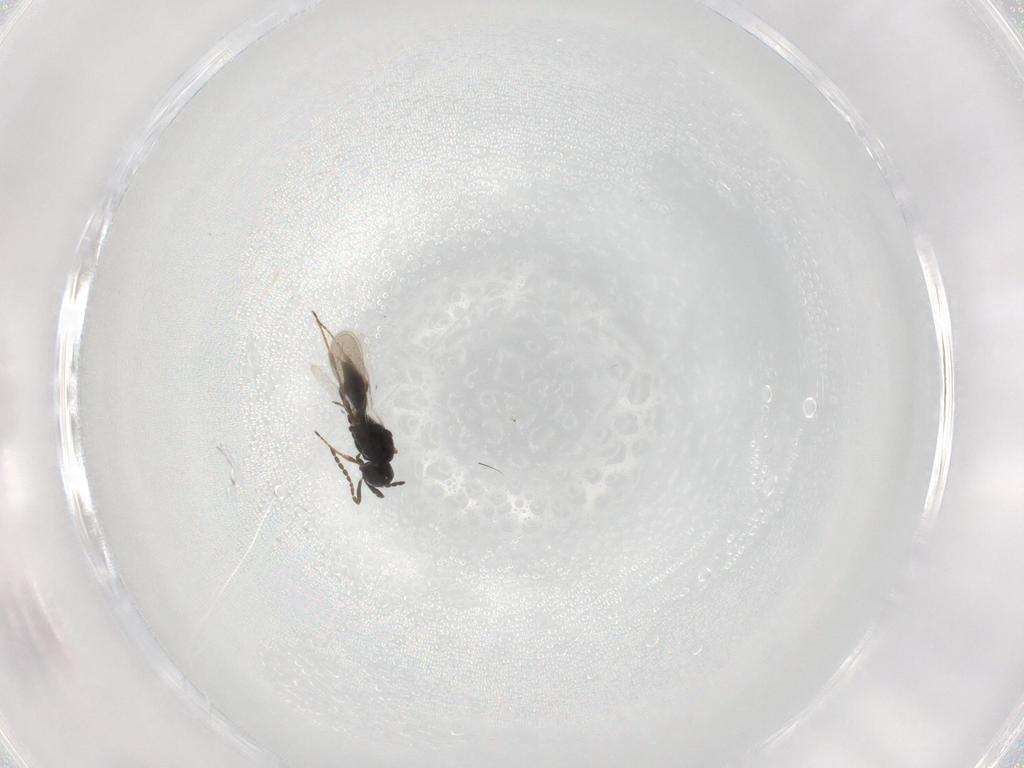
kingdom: Animalia
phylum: Arthropoda
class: Insecta
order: Hymenoptera
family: Platygastridae
